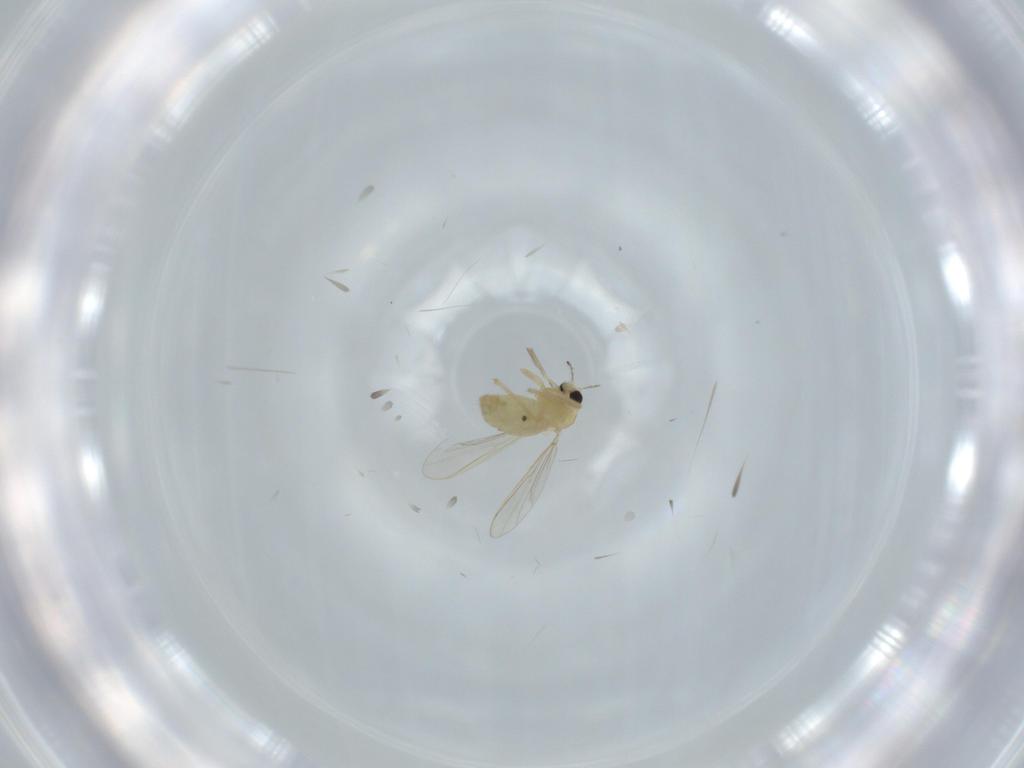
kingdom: Animalia
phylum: Arthropoda
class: Insecta
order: Diptera
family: Chironomidae
